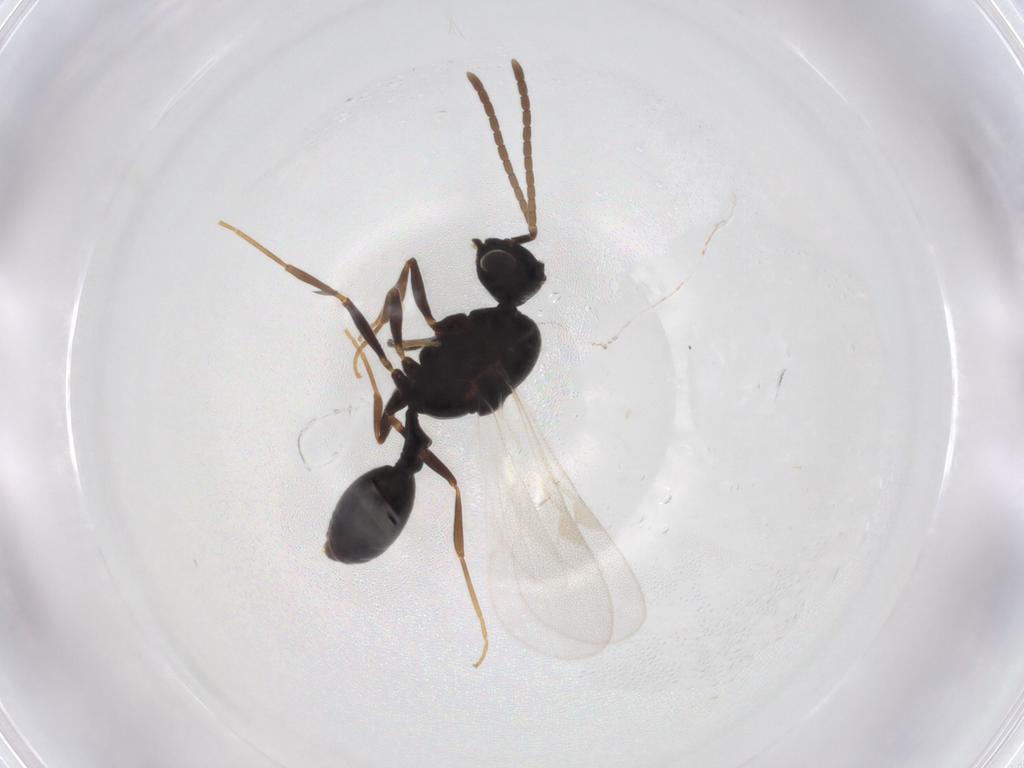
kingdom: Animalia
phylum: Arthropoda
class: Insecta
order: Hymenoptera
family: Formicidae
